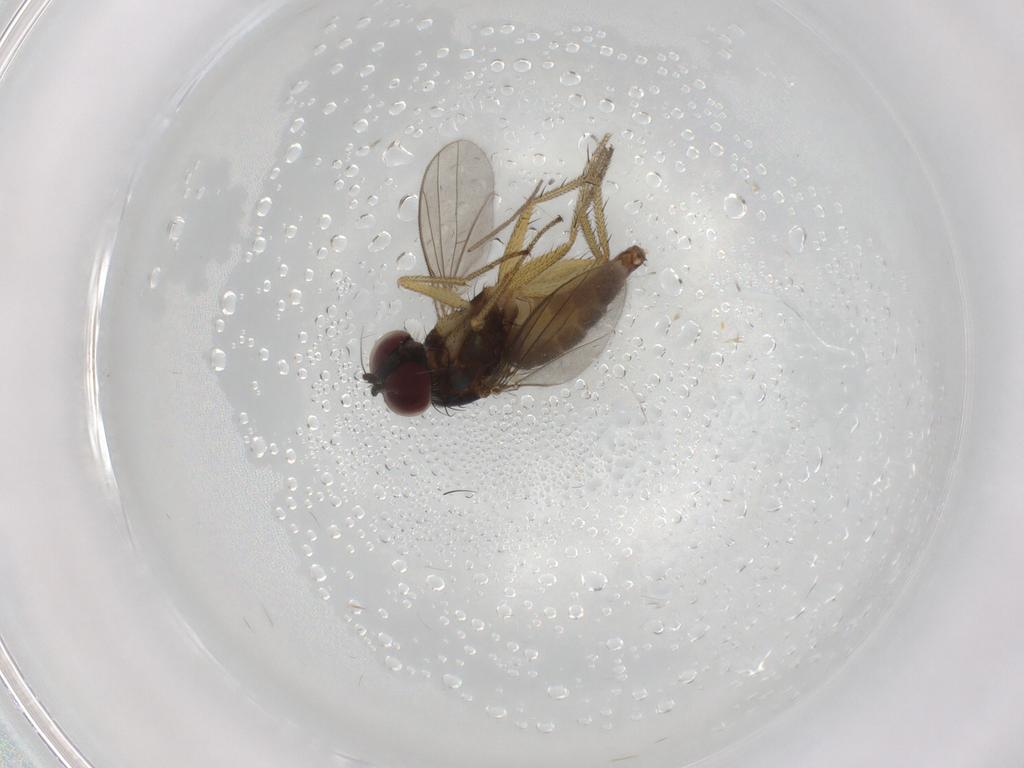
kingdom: Animalia
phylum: Arthropoda
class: Insecta
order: Diptera
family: Dolichopodidae
